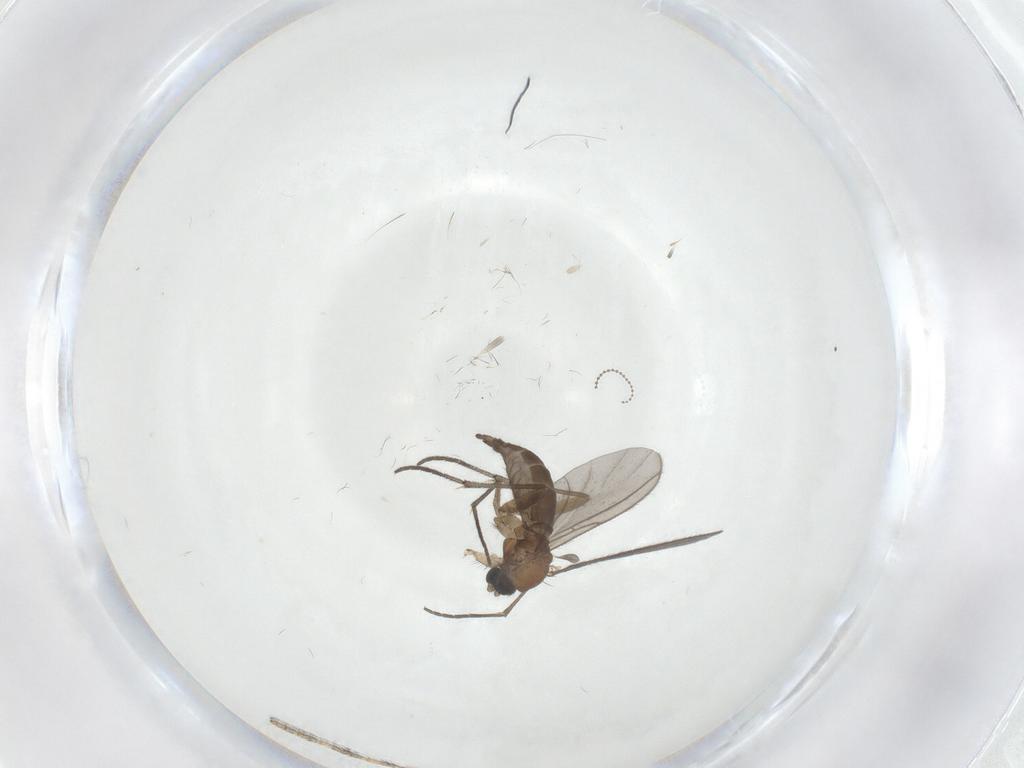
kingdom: Animalia
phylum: Arthropoda
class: Insecta
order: Diptera
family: Sciaridae
